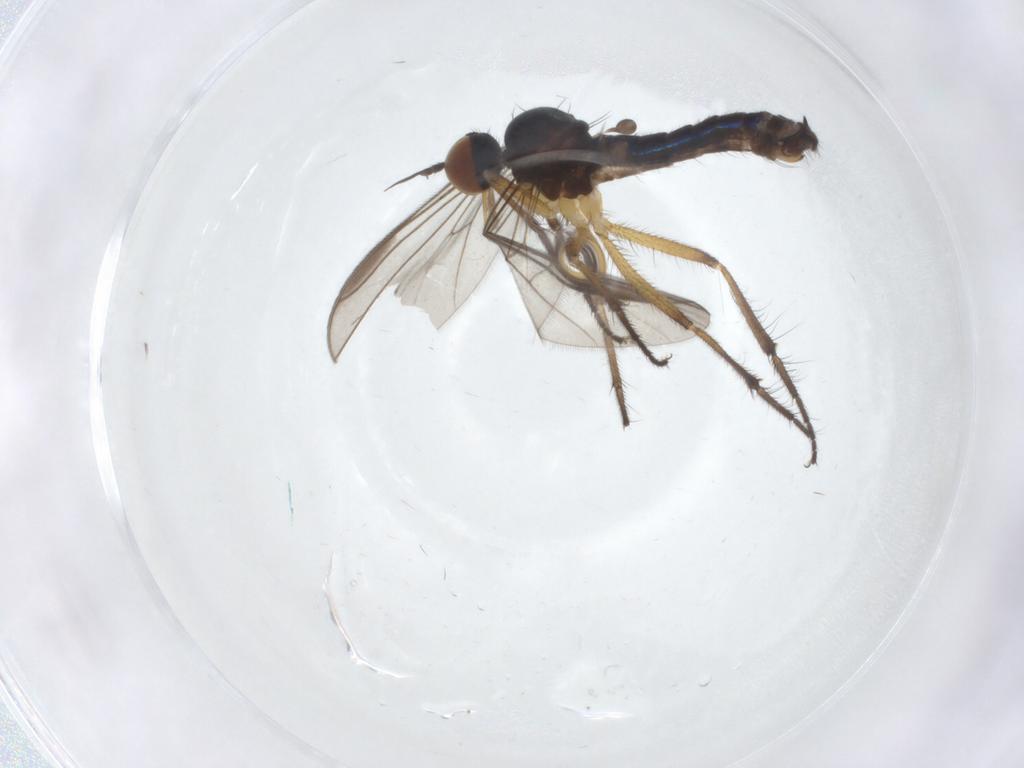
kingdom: Animalia
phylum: Arthropoda
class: Insecta
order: Diptera
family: Empididae
